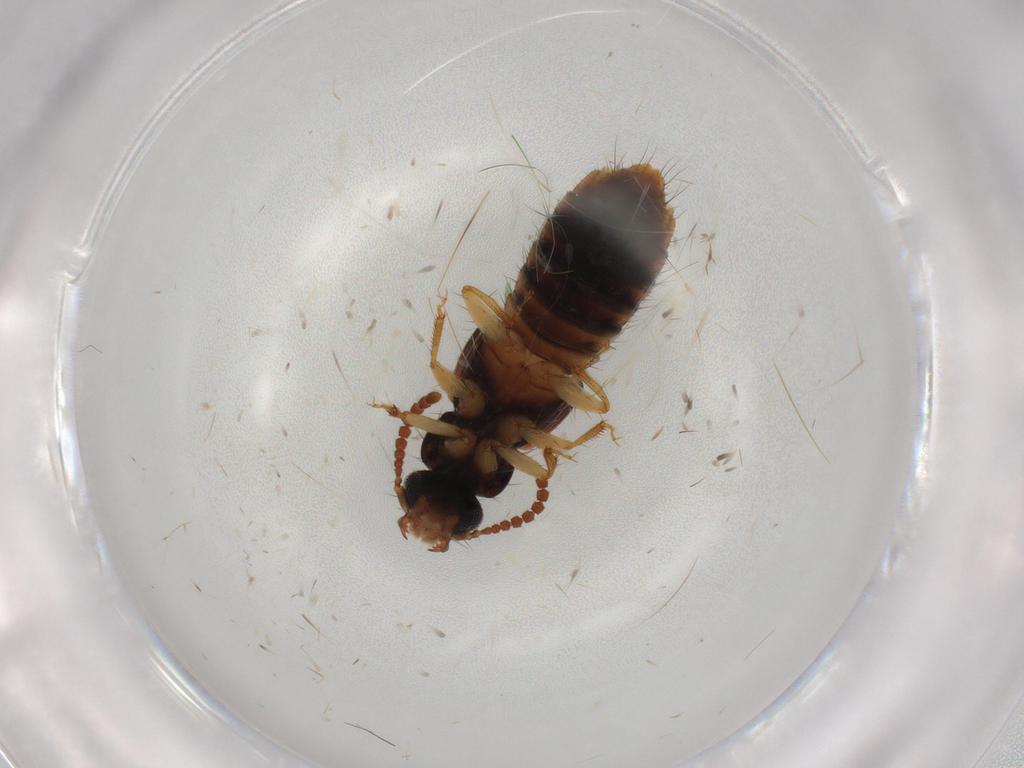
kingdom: Animalia
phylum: Arthropoda
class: Insecta
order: Coleoptera
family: Staphylinidae
